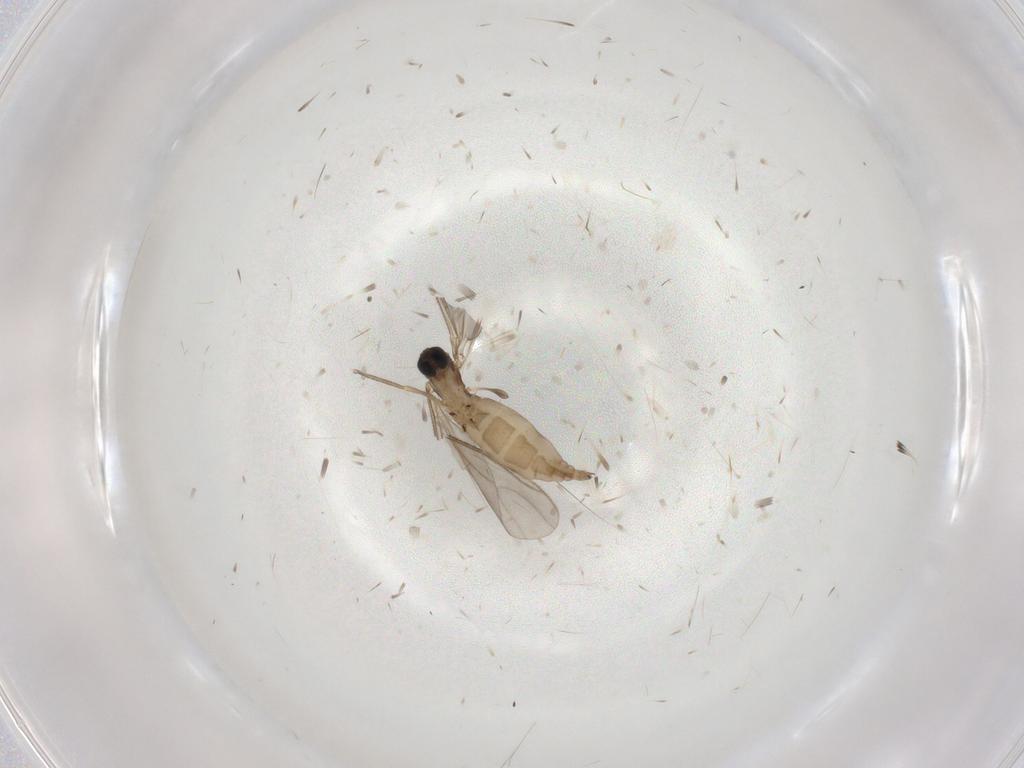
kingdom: Animalia
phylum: Arthropoda
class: Insecta
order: Diptera
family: Sciaridae
